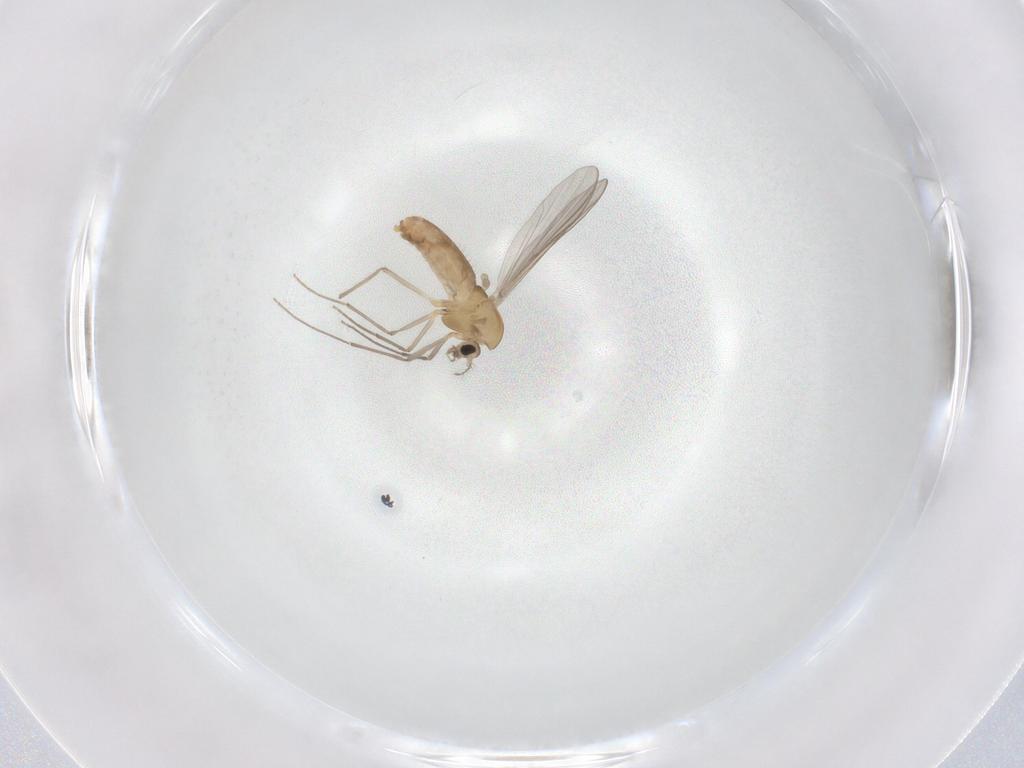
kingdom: Animalia
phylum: Arthropoda
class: Insecta
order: Diptera
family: Chironomidae
